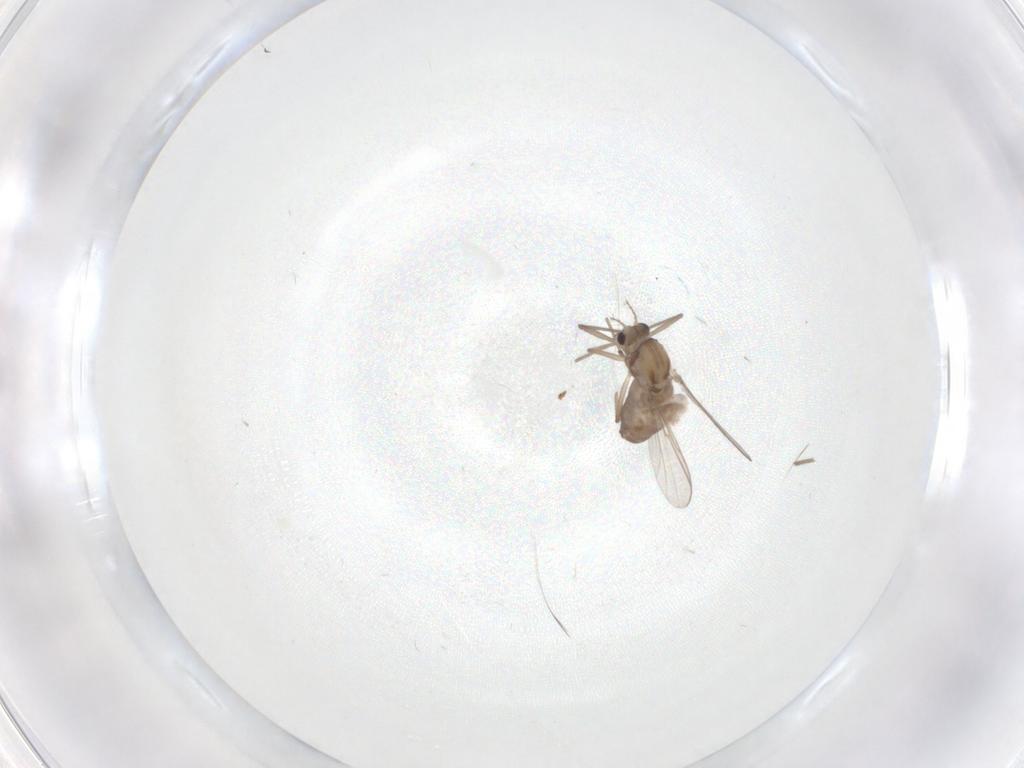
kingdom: Animalia
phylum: Arthropoda
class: Insecta
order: Diptera
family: Chironomidae
